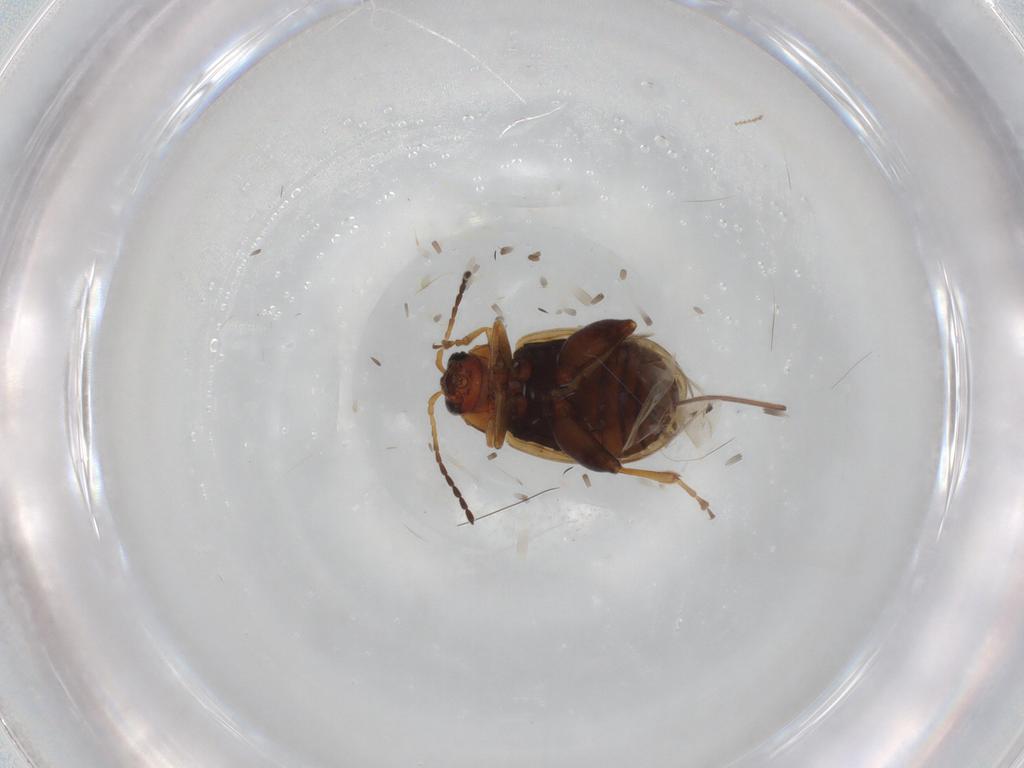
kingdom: Animalia
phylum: Arthropoda
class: Insecta
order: Coleoptera
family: Chrysomelidae
